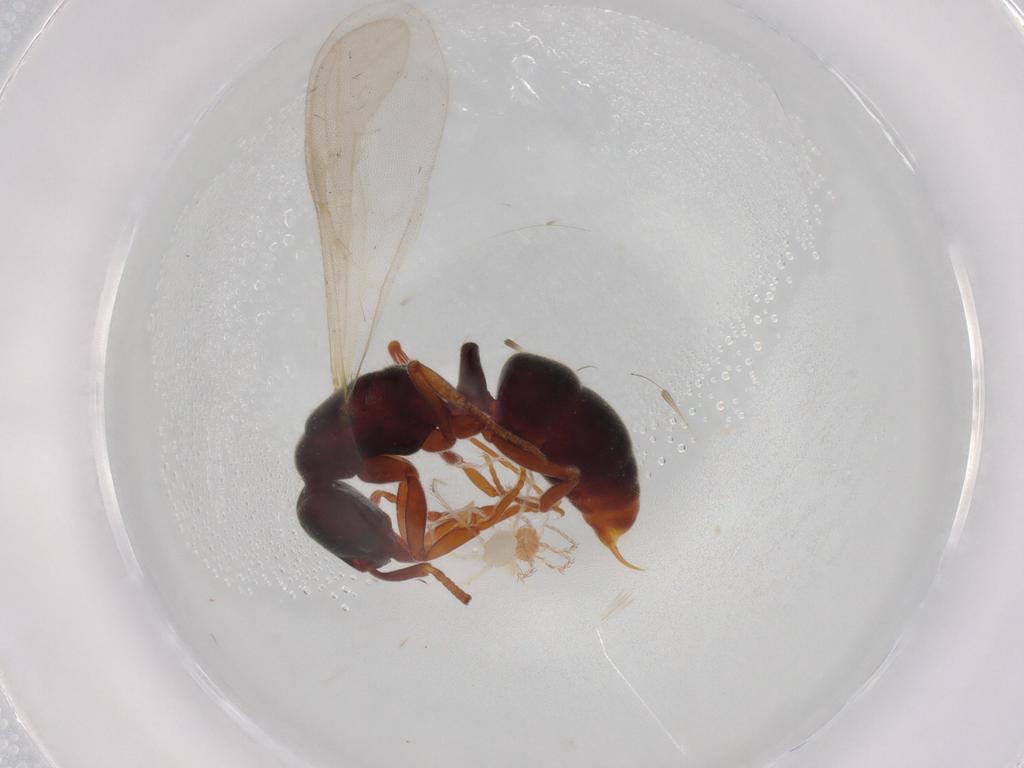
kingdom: Animalia
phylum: Arthropoda
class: Insecta
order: Hymenoptera
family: Formicidae
